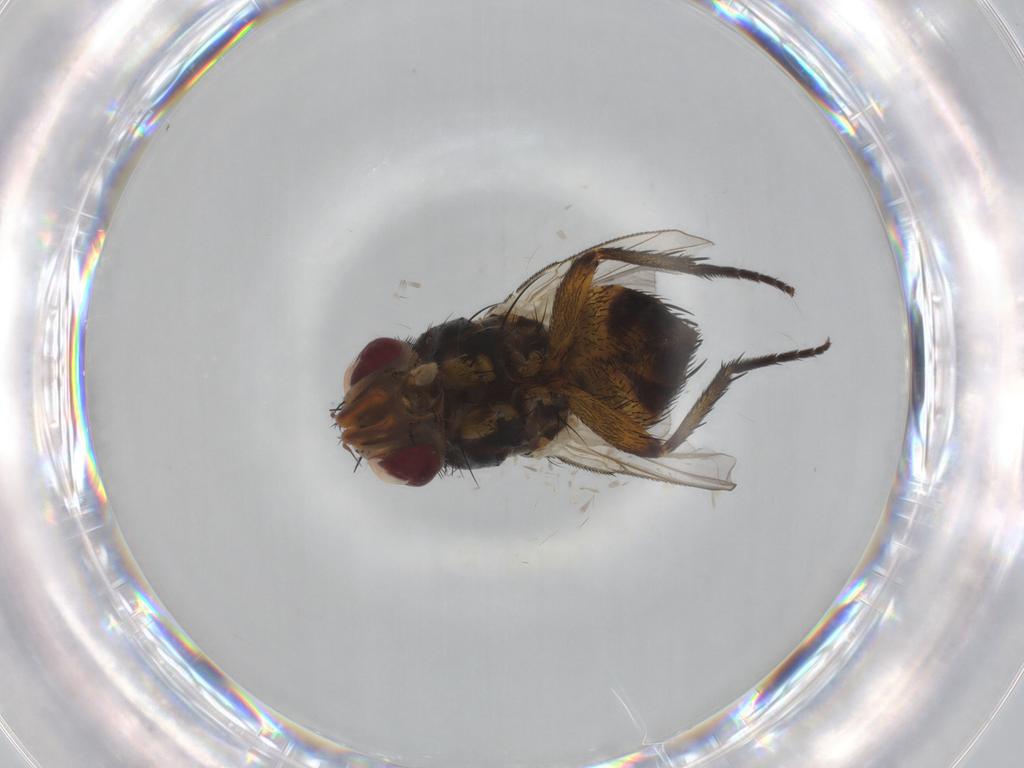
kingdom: Animalia
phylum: Arthropoda
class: Insecta
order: Diptera
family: Tachinidae
